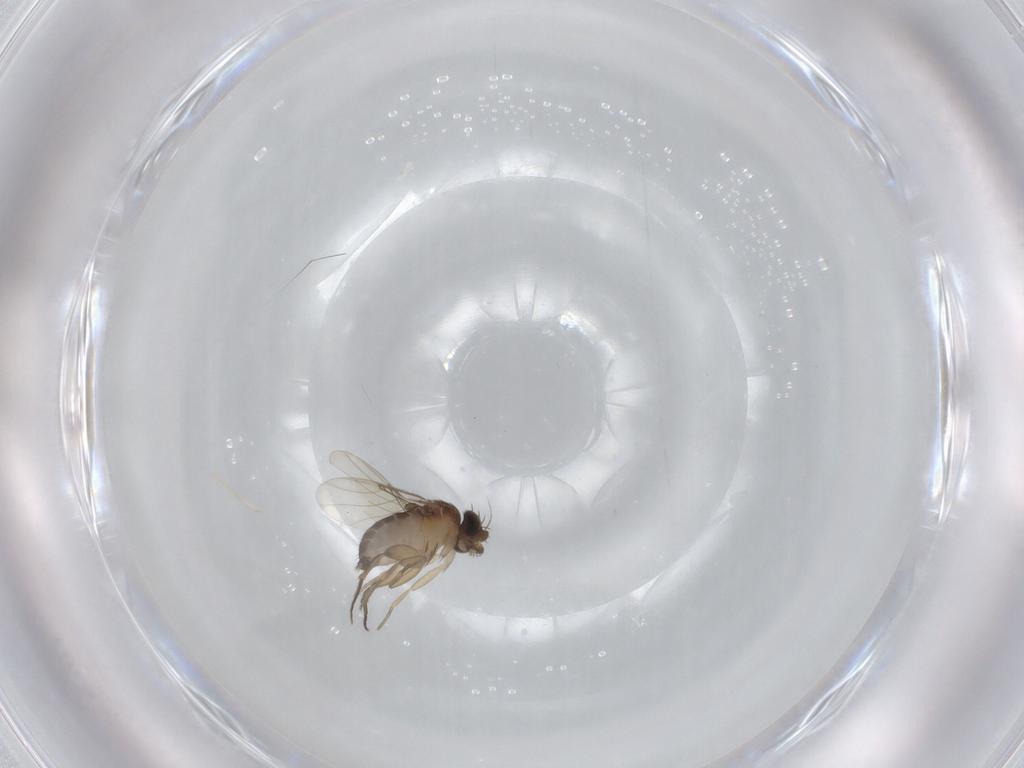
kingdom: Animalia
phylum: Arthropoda
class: Insecta
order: Diptera
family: Phoridae
